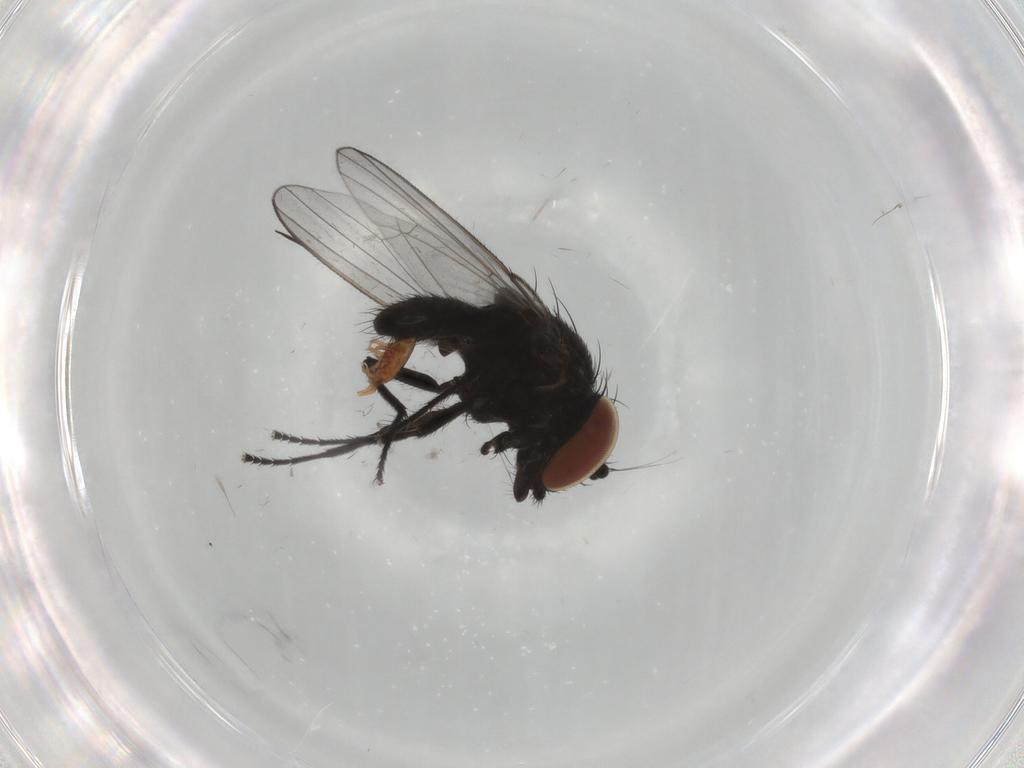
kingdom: Animalia
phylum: Arthropoda
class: Insecta
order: Diptera
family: Milichiidae
